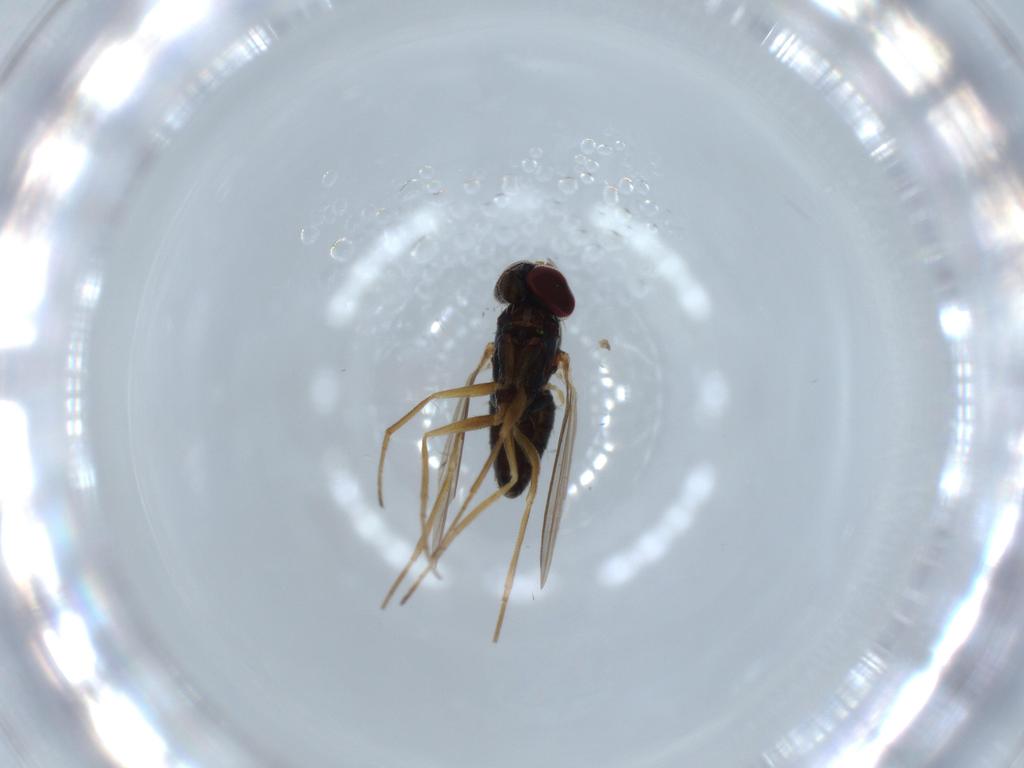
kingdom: Animalia
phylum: Arthropoda
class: Insecta
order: Diptera
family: Dolichopodidae
